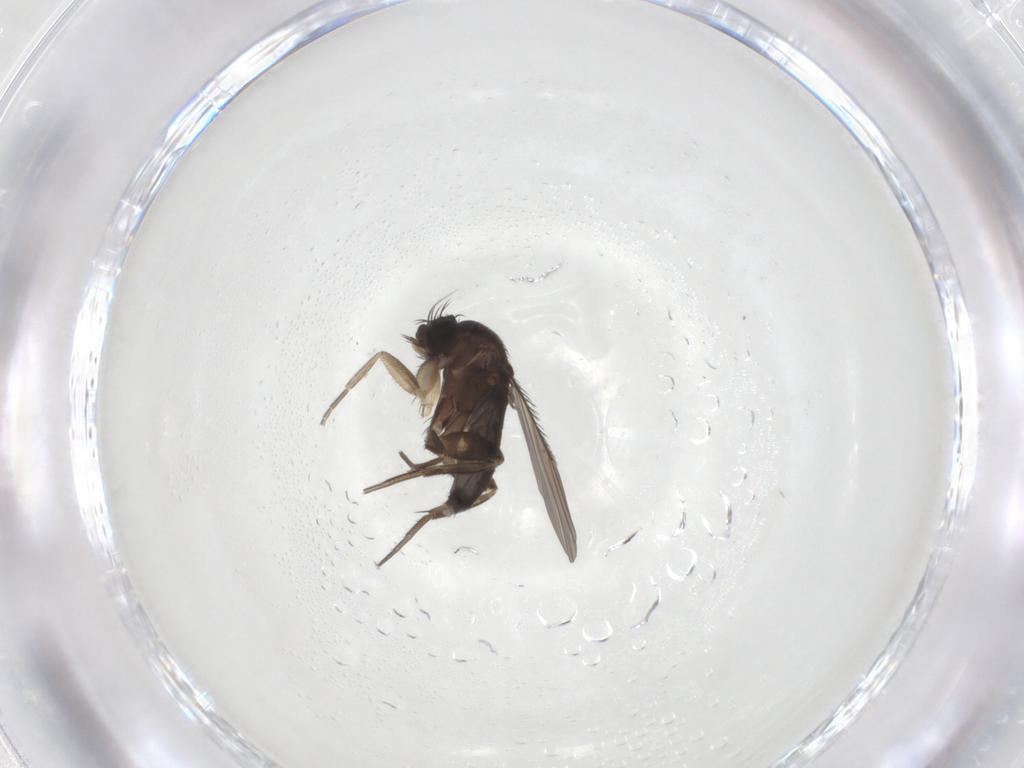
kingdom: Animalia
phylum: Arthropoda
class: Insecta
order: Diptera
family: Phoridae
